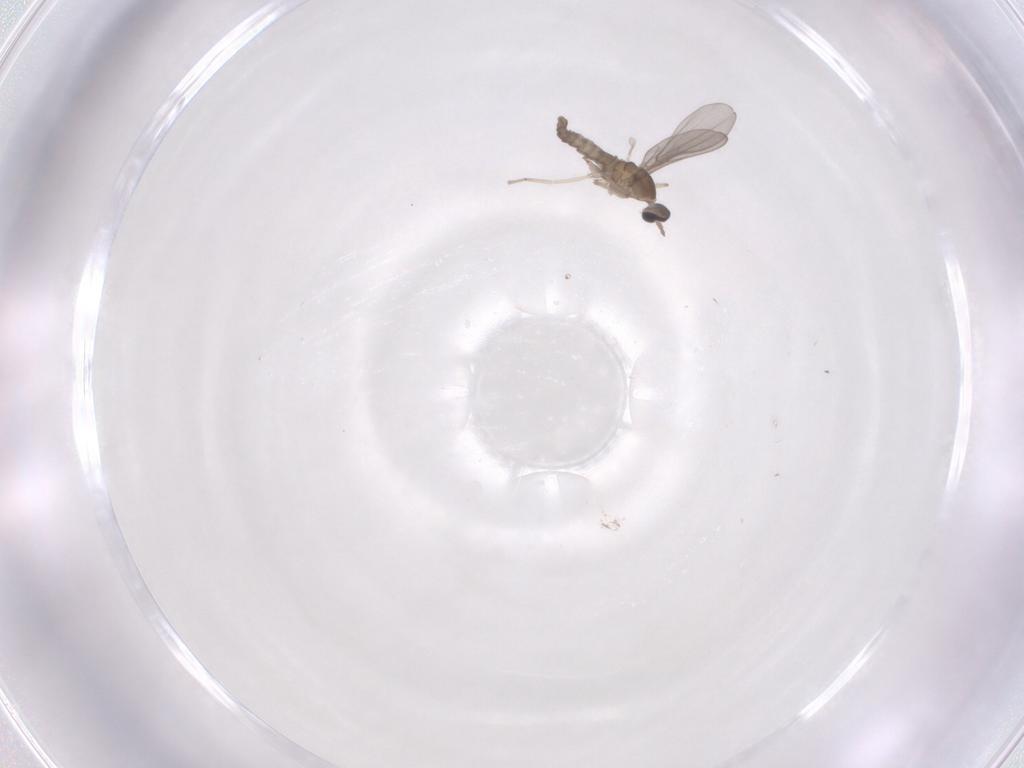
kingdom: Animalia
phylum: Arthropoda
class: Insecta
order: Diptera
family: Cecidomyiidae
